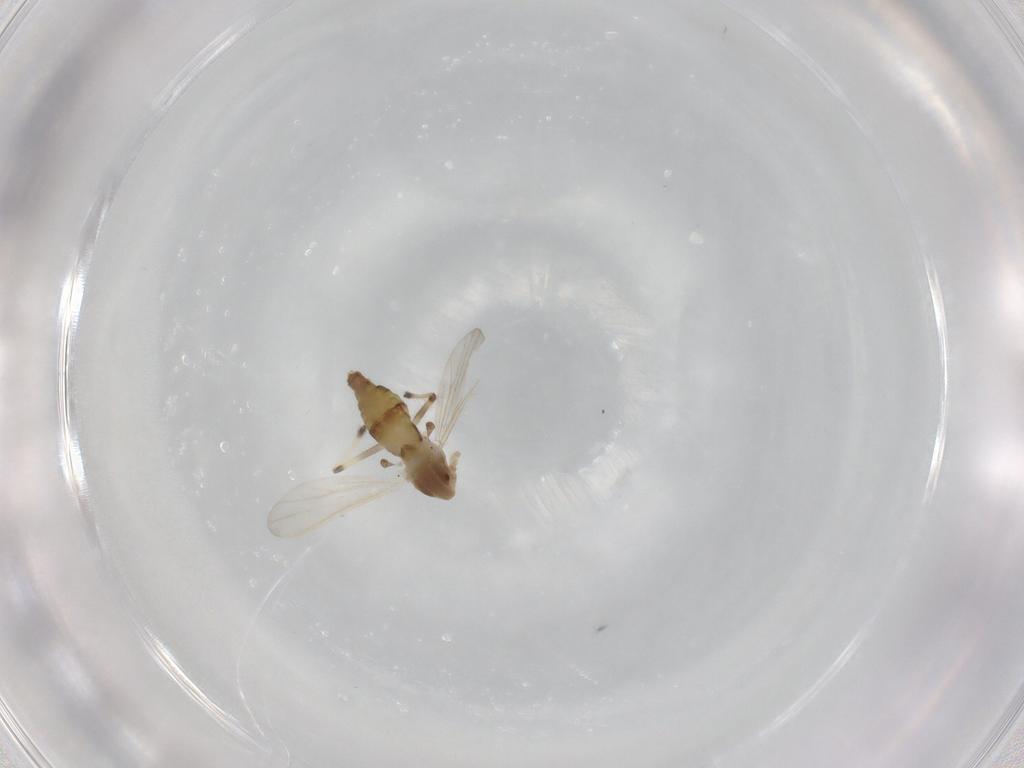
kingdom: Animalia
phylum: Arthropoda
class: Insecta
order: Diptera
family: Chironomidae
